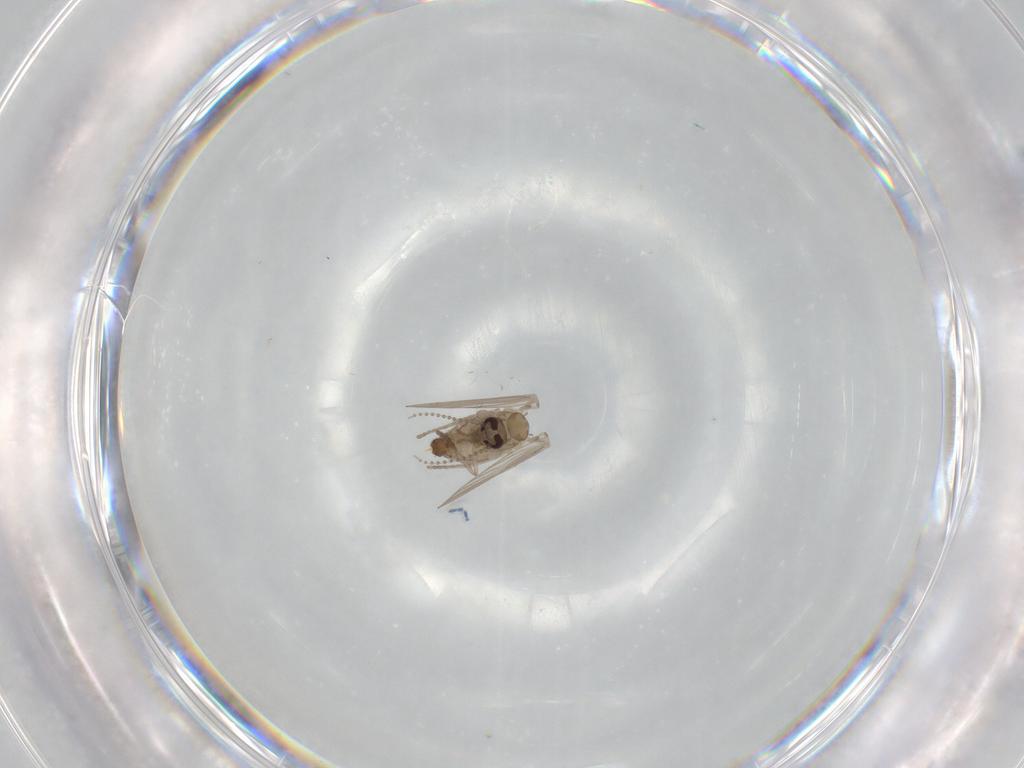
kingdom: Animalia
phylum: Arthropoda
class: Insecta
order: Diptera
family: Psychodidae
